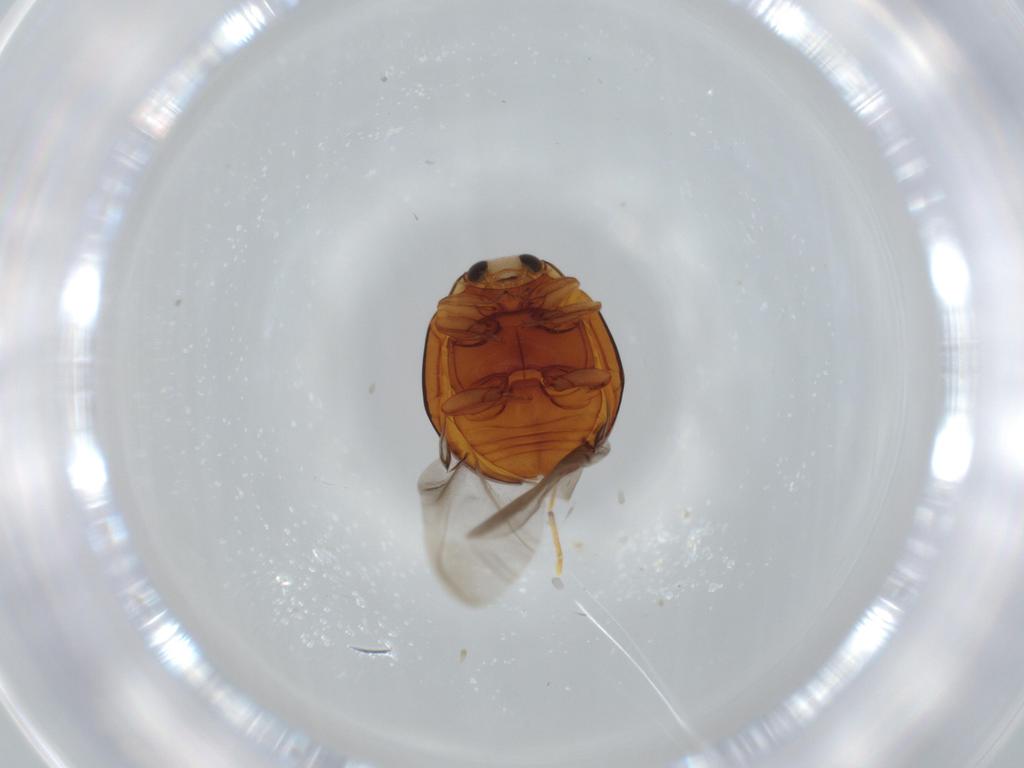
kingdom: Animalia
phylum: Arthropoda
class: Insecta
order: Coleoptera
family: Coccinellidae
